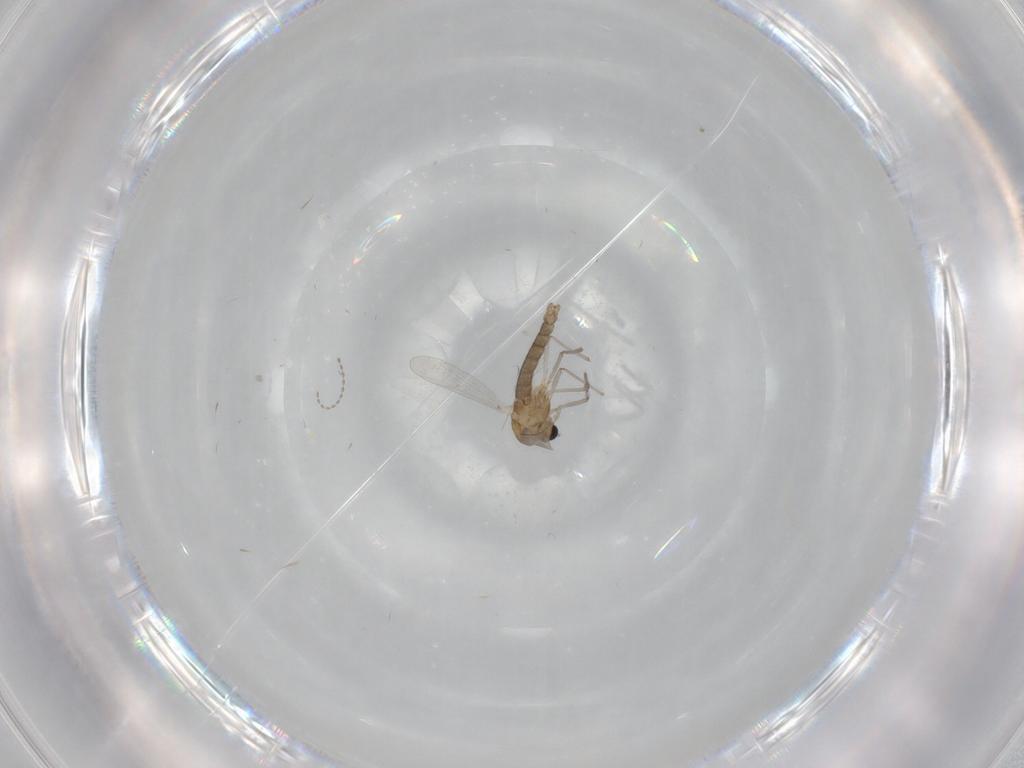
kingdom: Animalia
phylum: Arthropoda
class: Insecta
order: Diptera
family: Chironomidae
